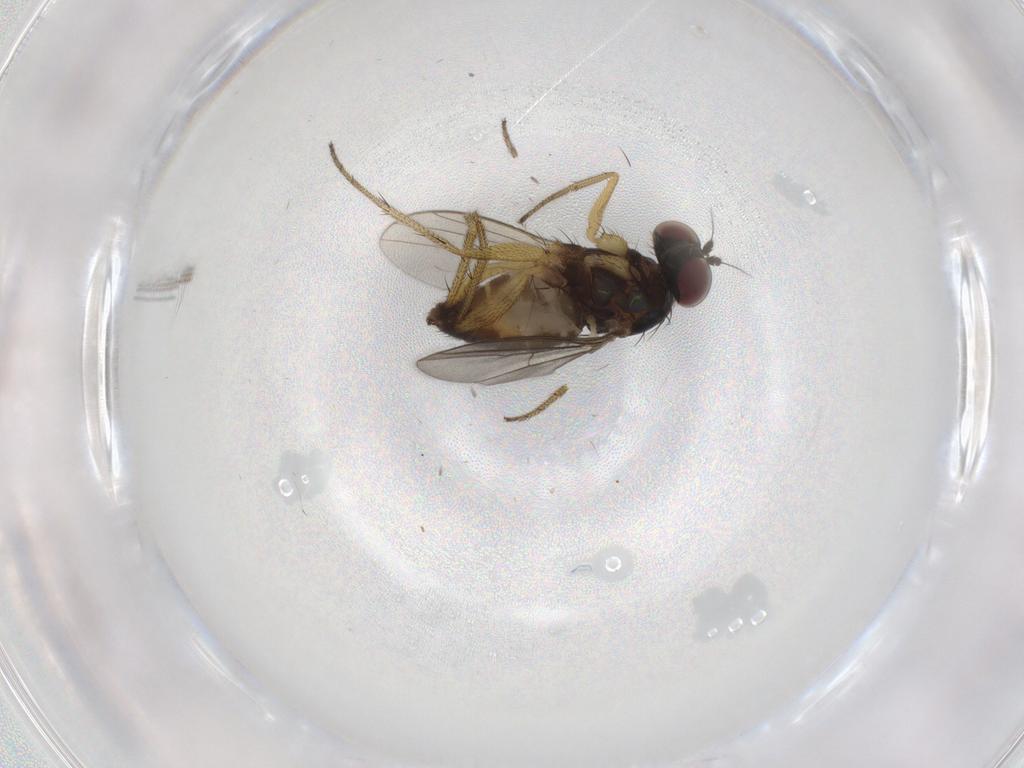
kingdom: Animalia
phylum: Arthropoda
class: Insecta
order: Diptera
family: Dolichopodidae
